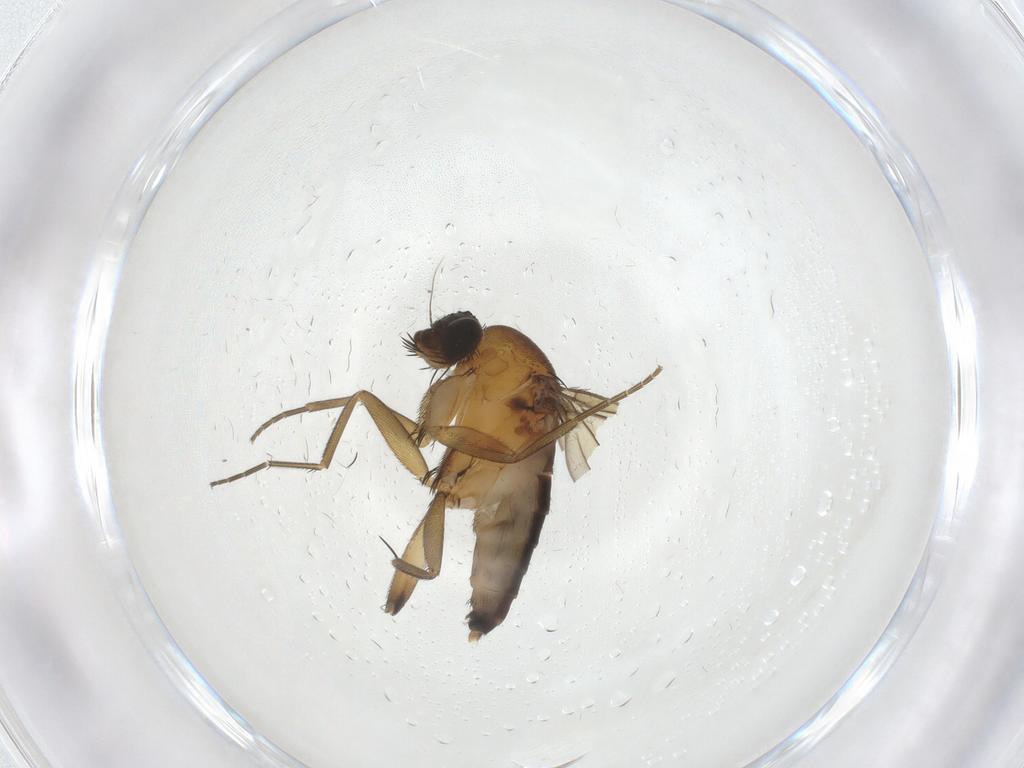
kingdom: Animalia
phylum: Arthropoda
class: Insecta
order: Diptera
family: Phoridae
